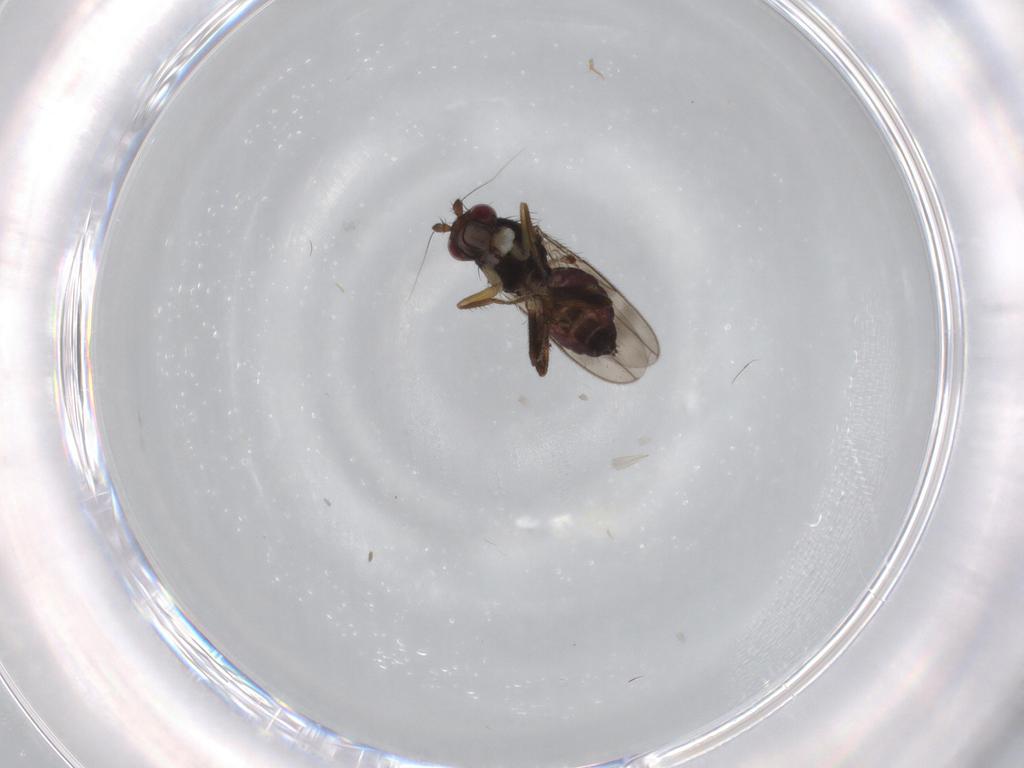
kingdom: Animalia
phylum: Arthropoda
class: Insecta
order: Diptera
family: Sphaeroceridae
